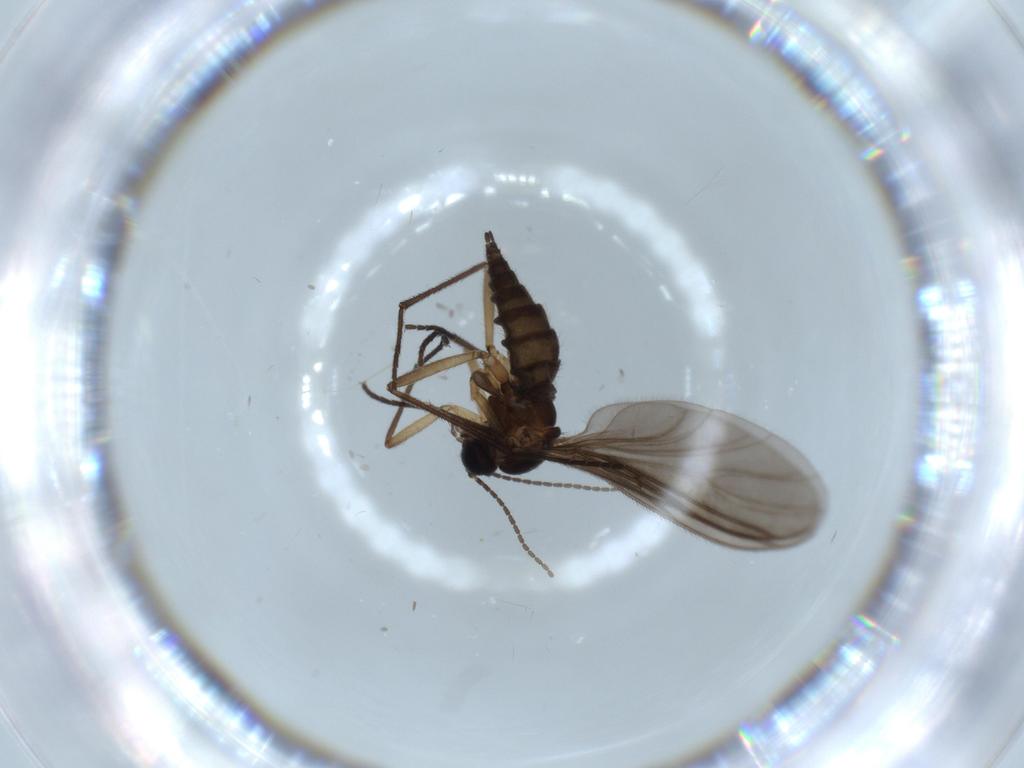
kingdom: Animalia
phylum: Arthropoda
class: Insecta
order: Diptera
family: Sciaridae
